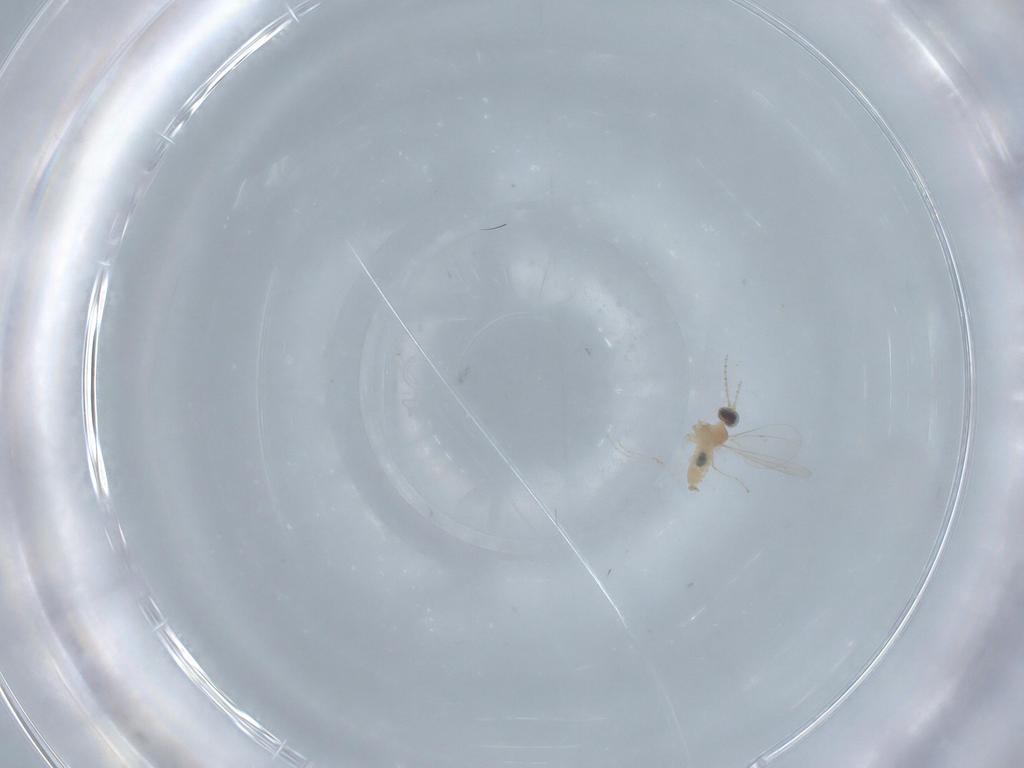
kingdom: Animalia
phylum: Arthropoda
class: Insecta
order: Diptera
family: Cecidomyiidae
